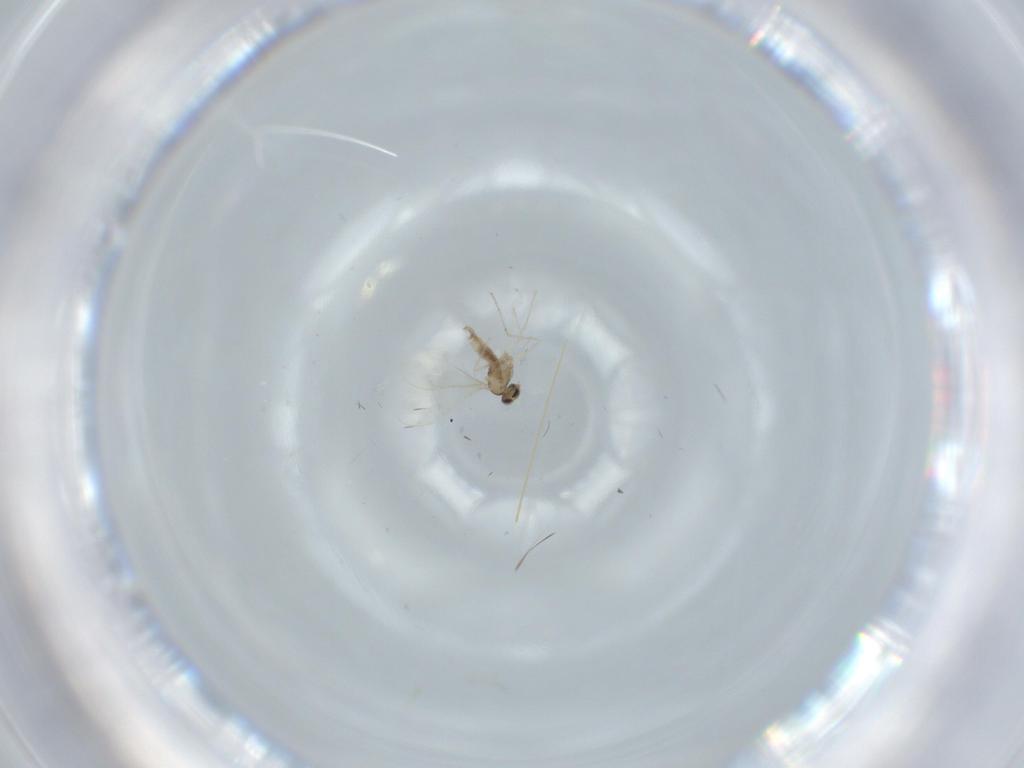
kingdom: Animalia
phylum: Arthropoda
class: Insecta
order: Diptera
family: Cecidomyiidae
